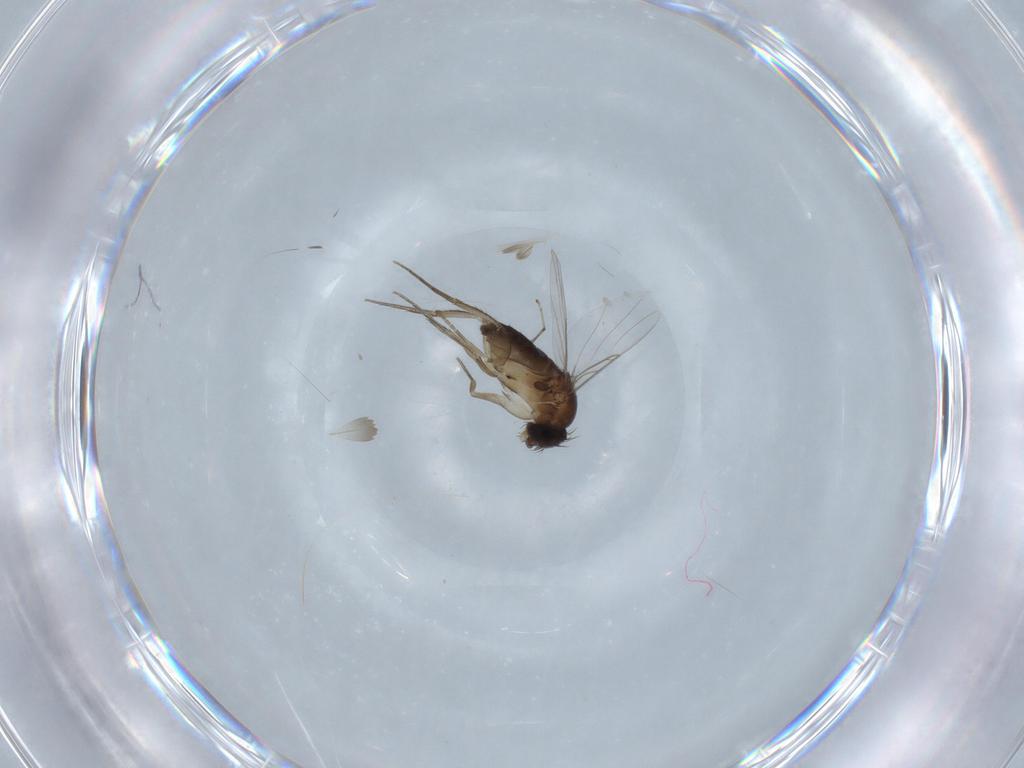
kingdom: Animalia
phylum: Arthropoda
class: Insecta
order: Diptera
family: Phoridae
